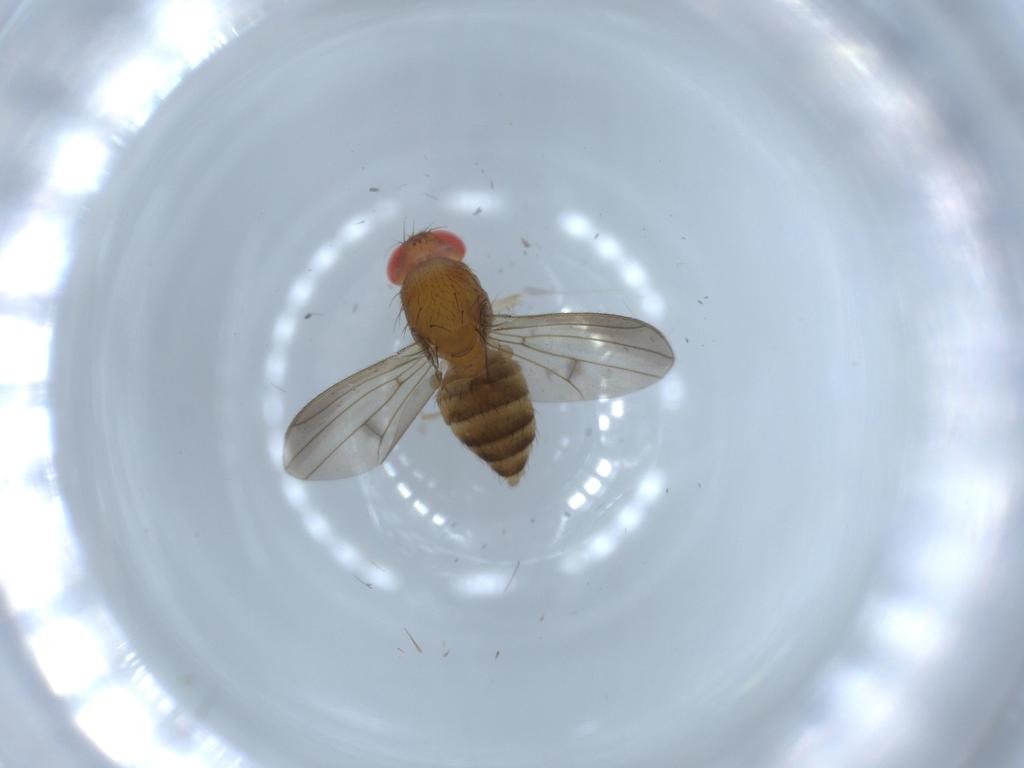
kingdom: Animalia
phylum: Arthropoda
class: Insecta
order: Diptera
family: Drosophilidae
